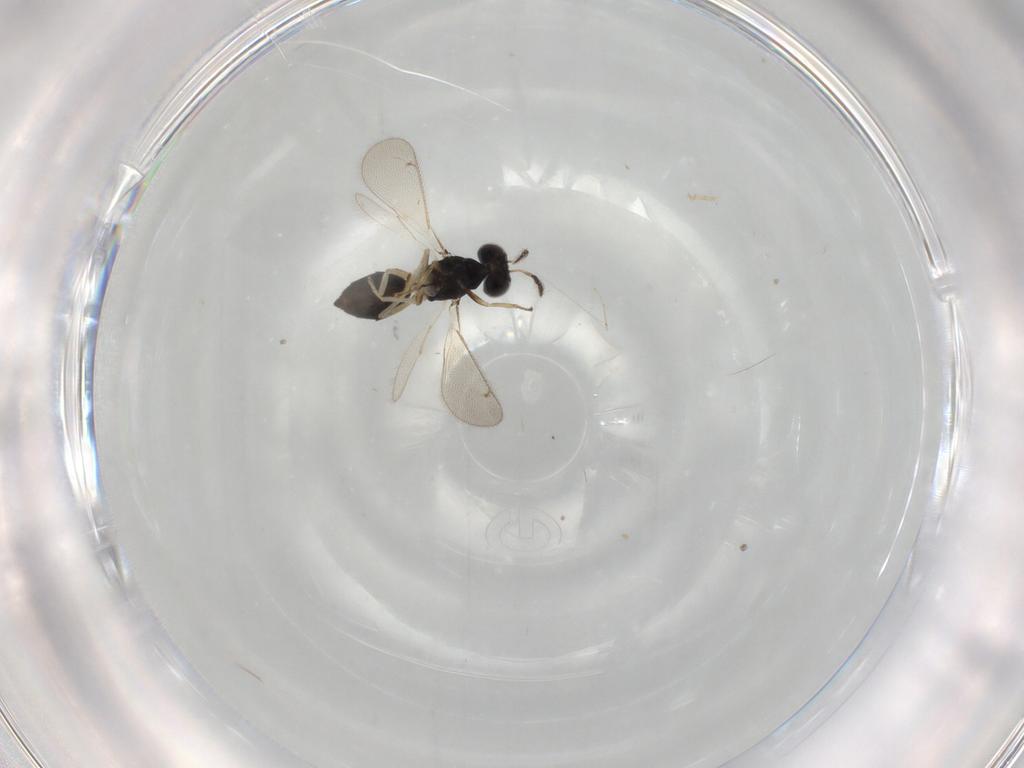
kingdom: Animalia
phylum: Arthropoda
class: Insecta
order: Hymenoptera
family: Eulophidae
